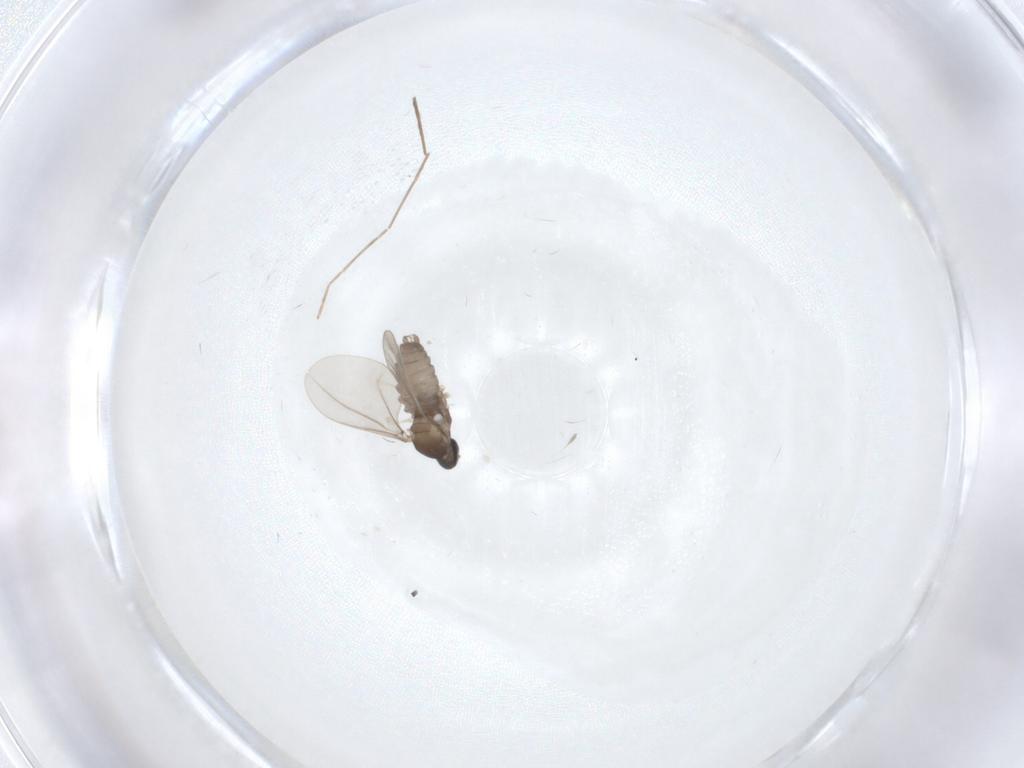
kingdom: Animalia
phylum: Arthropoda
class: Insecta
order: Diptera
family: Chironomidae
